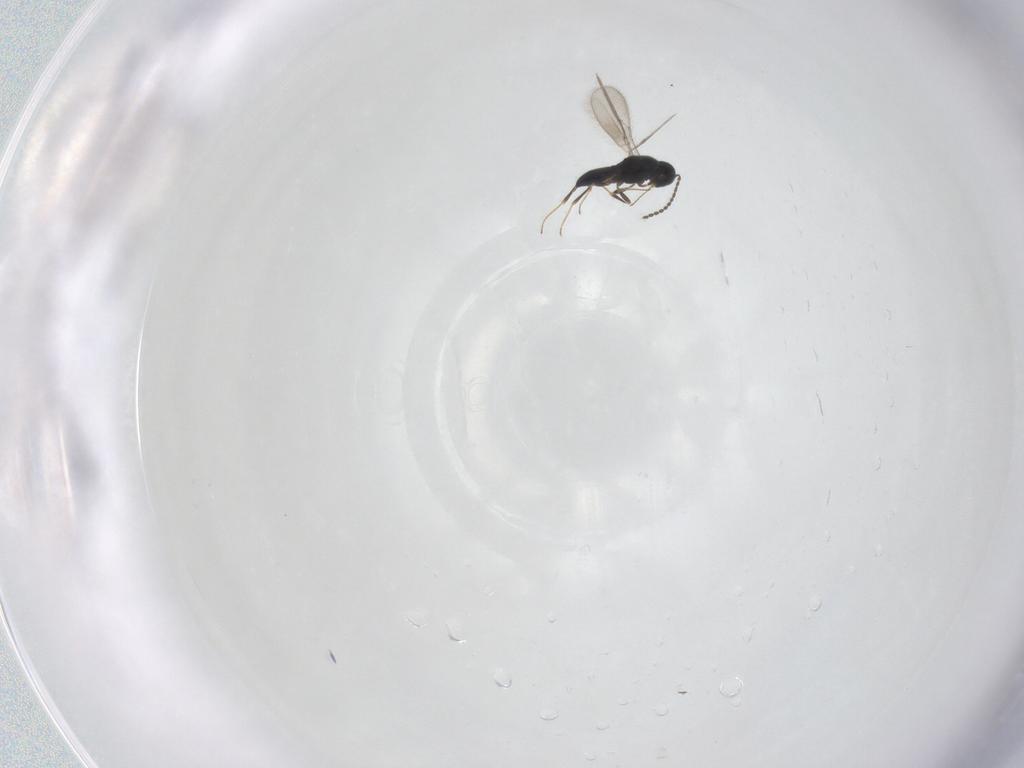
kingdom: Animalia
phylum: Arthropoda
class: Insecta
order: Hymenoptera
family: Scelionidae
